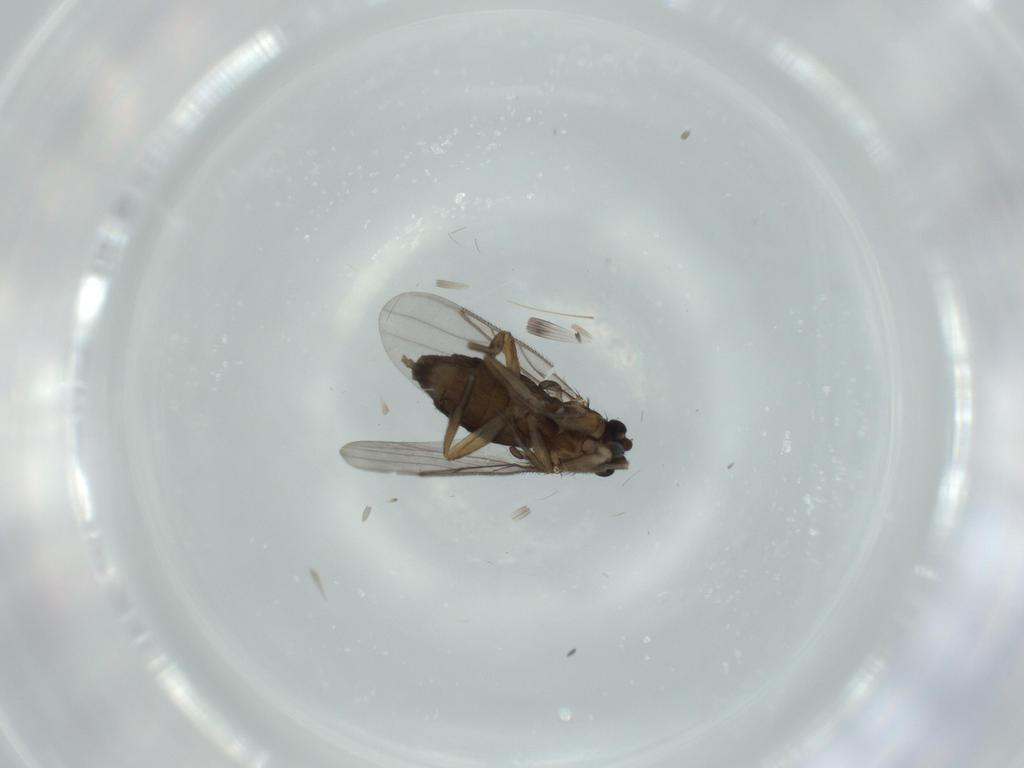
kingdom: Animalia
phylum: Arthropoda
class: Insecta
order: Diptera
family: Phoridae
